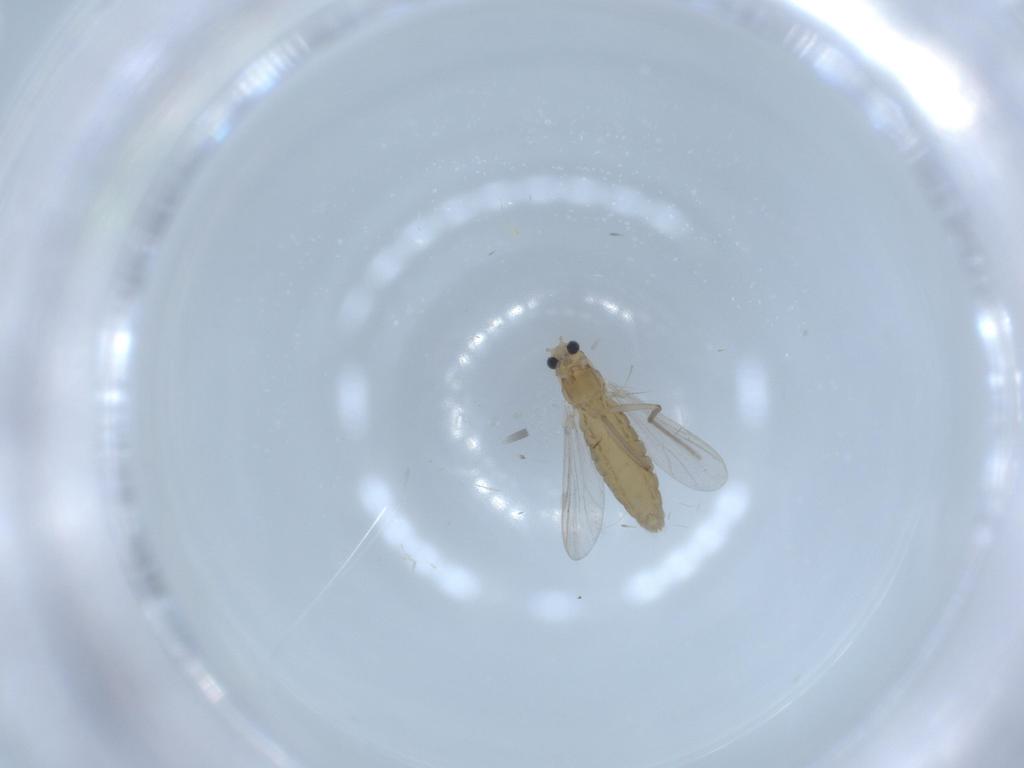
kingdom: Animalia
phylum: Arthropoda
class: Insecta
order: Diptera
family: Chironomidae
